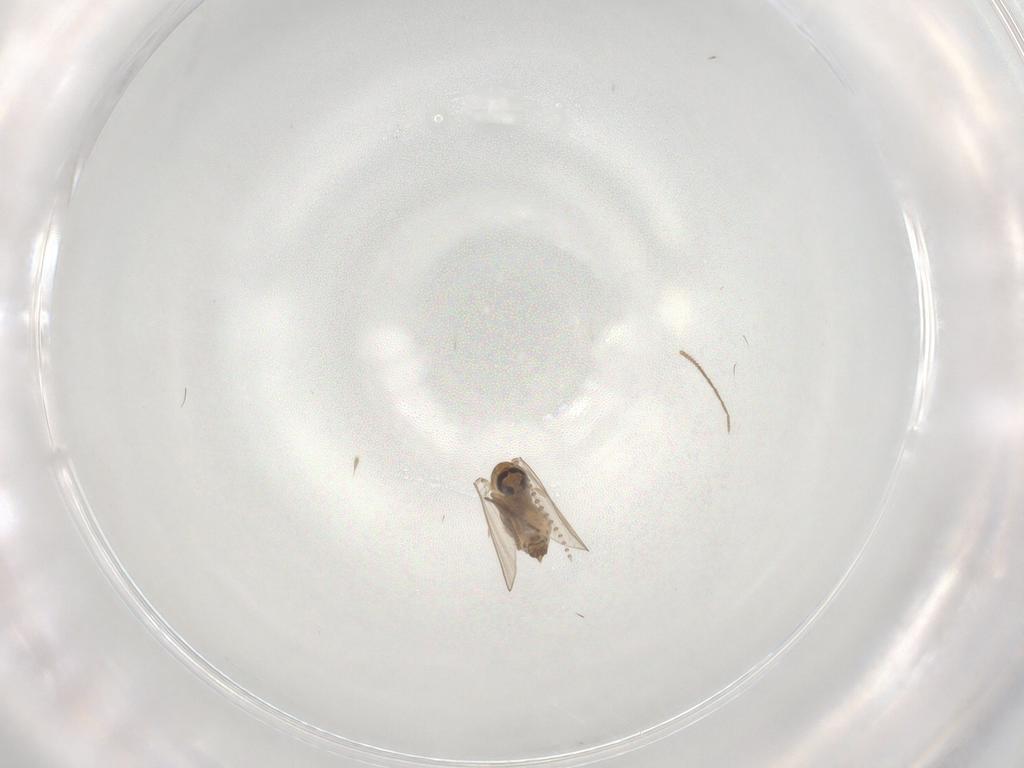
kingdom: Animalia
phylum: Arthropoda
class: Insecta
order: Diptera
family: Psychodidae
